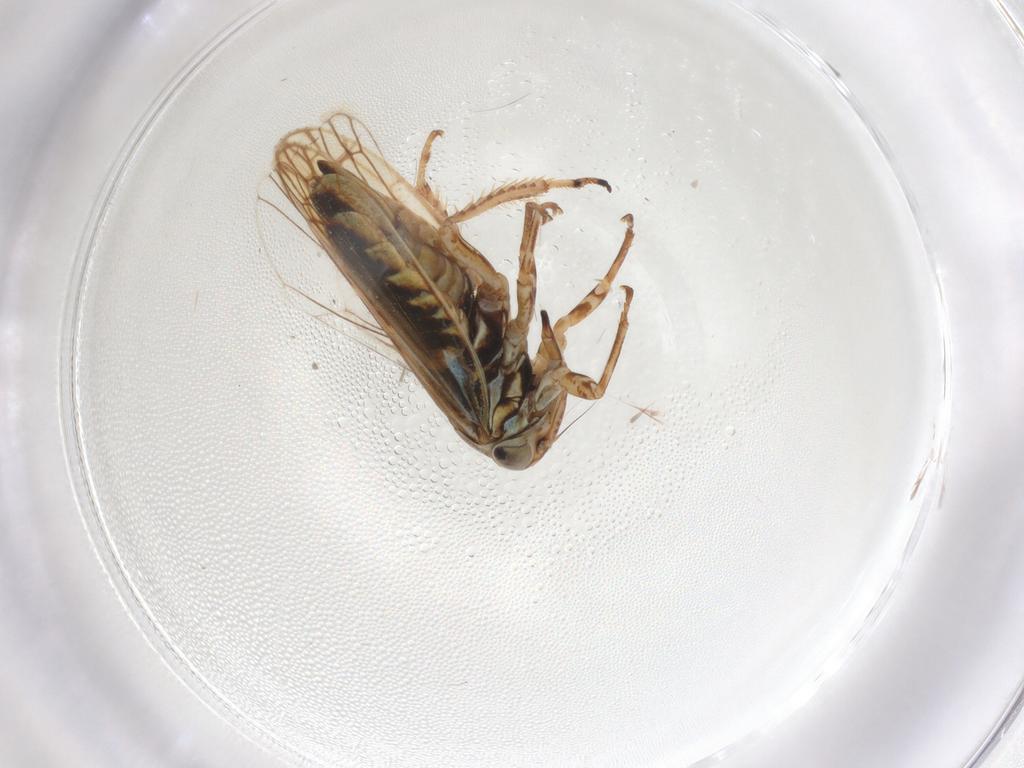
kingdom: Animalia
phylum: Arthropoda
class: Insecta
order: Hemiptera
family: Cicadellidae
